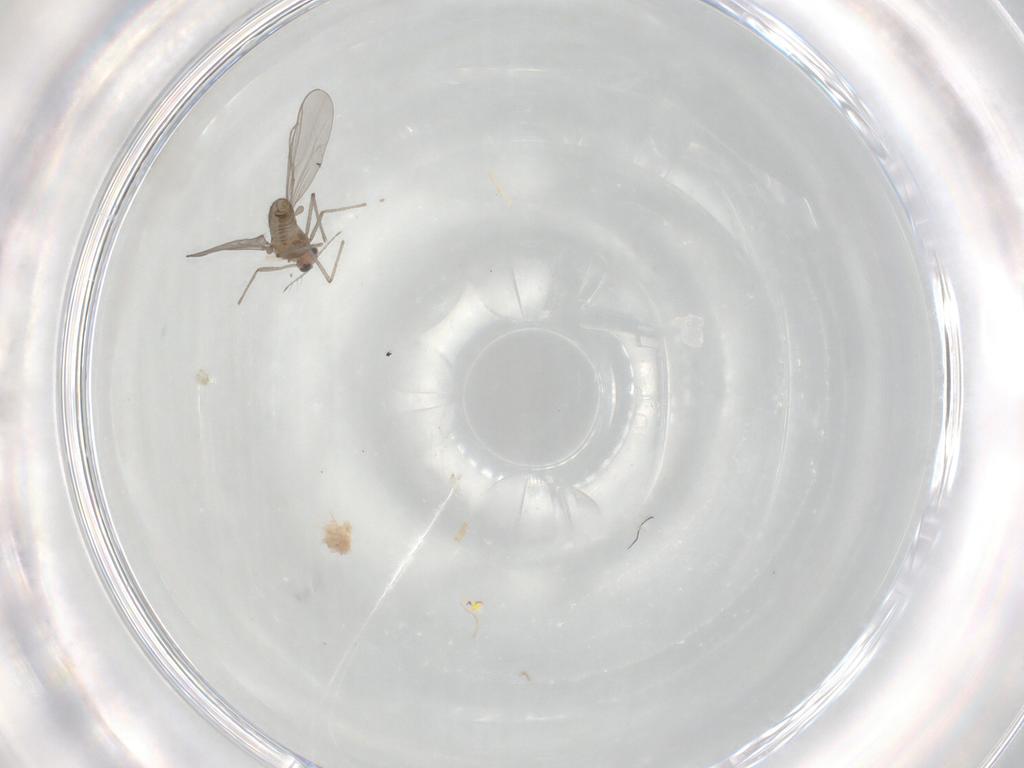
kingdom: Animalia
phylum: Arthropoda
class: Insecta
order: Diptera
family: Chironomidae
